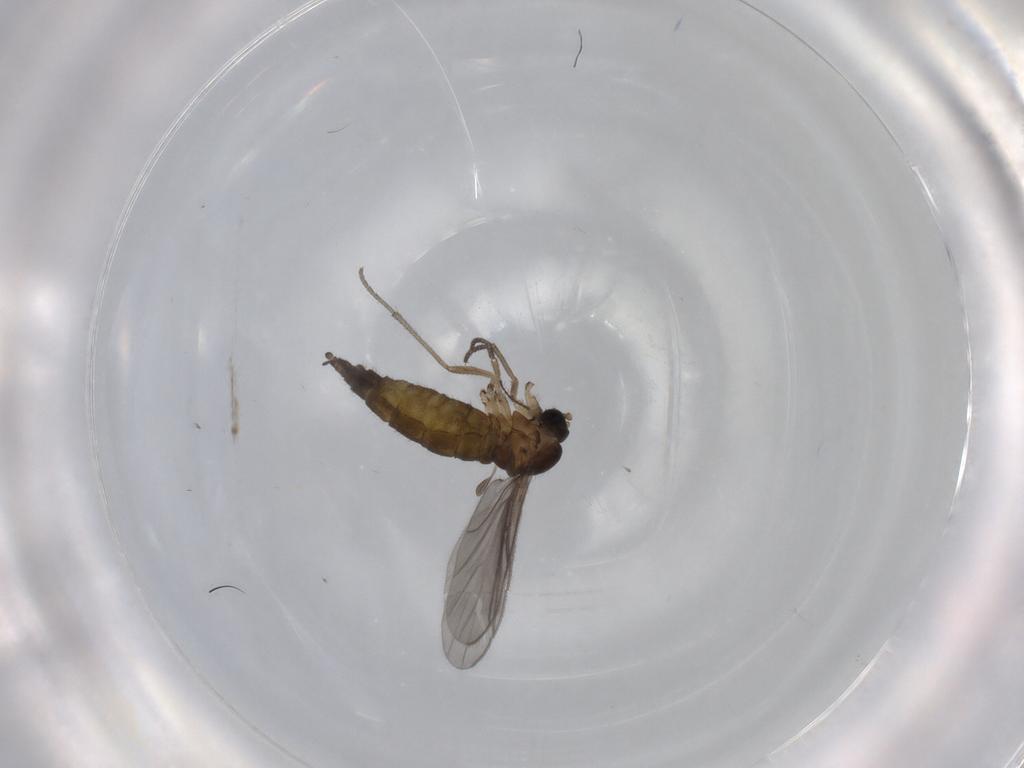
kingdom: Animalia
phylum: Arthropoda
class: Insecta
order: Diptera
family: Sciaridae
